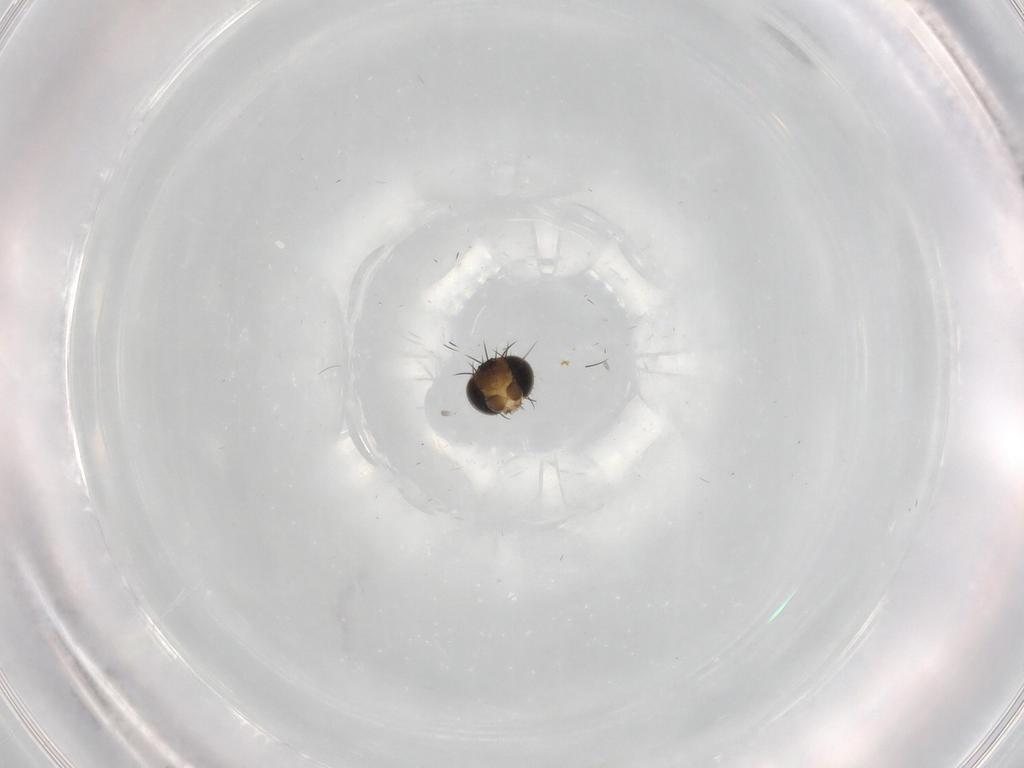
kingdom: Animalia
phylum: Arthropoda
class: Insecta
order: Diptera
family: Phoridae
